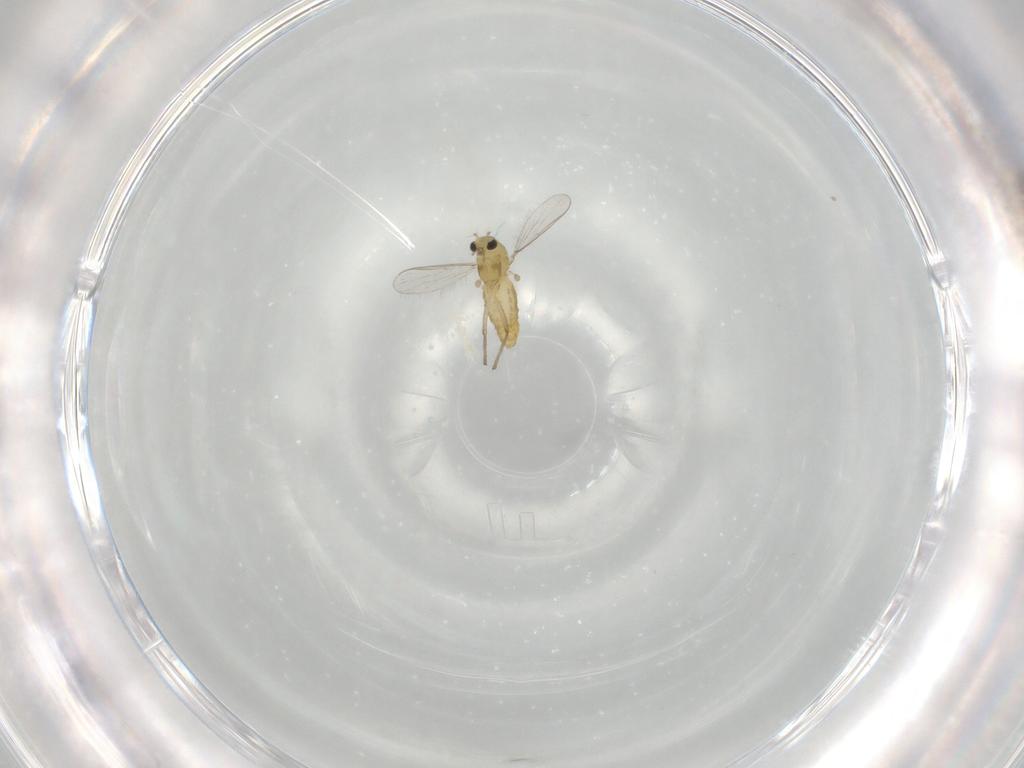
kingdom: Animalia
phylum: Arthropoda
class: Insecta
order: Diptera
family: Chironomidae
